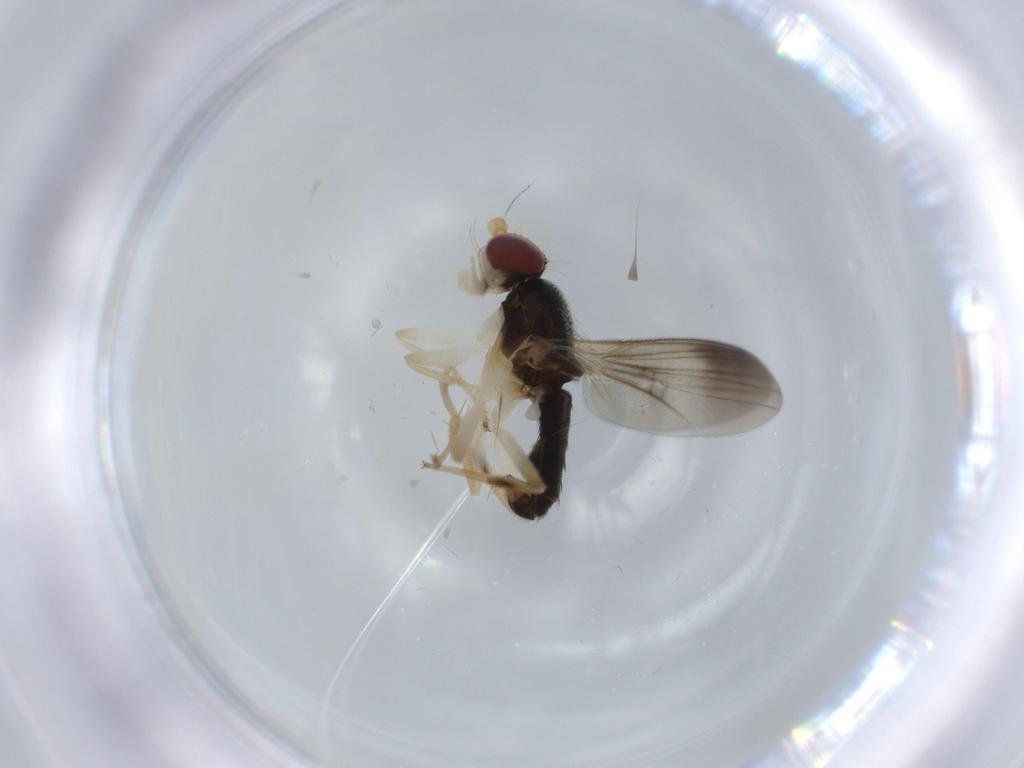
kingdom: Animalia
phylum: Arthropoda
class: Insecta
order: Diptera
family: Clusiidae
